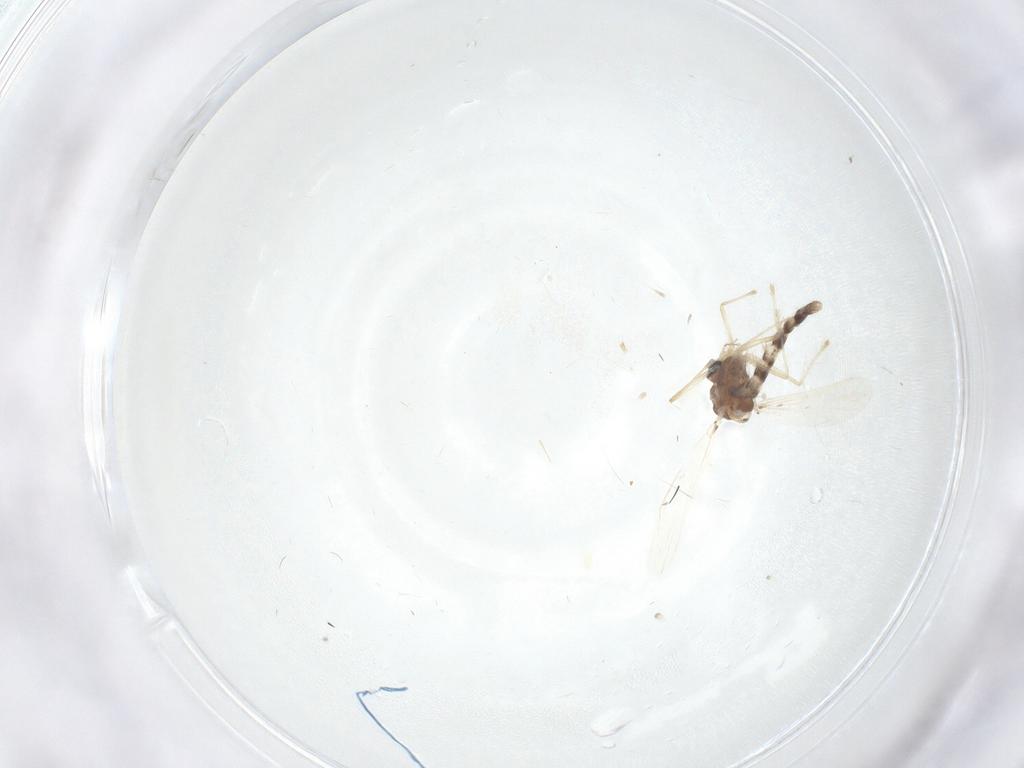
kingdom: Animalia
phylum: Arthropoda
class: Insecta
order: Diptera
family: Chironomidae
